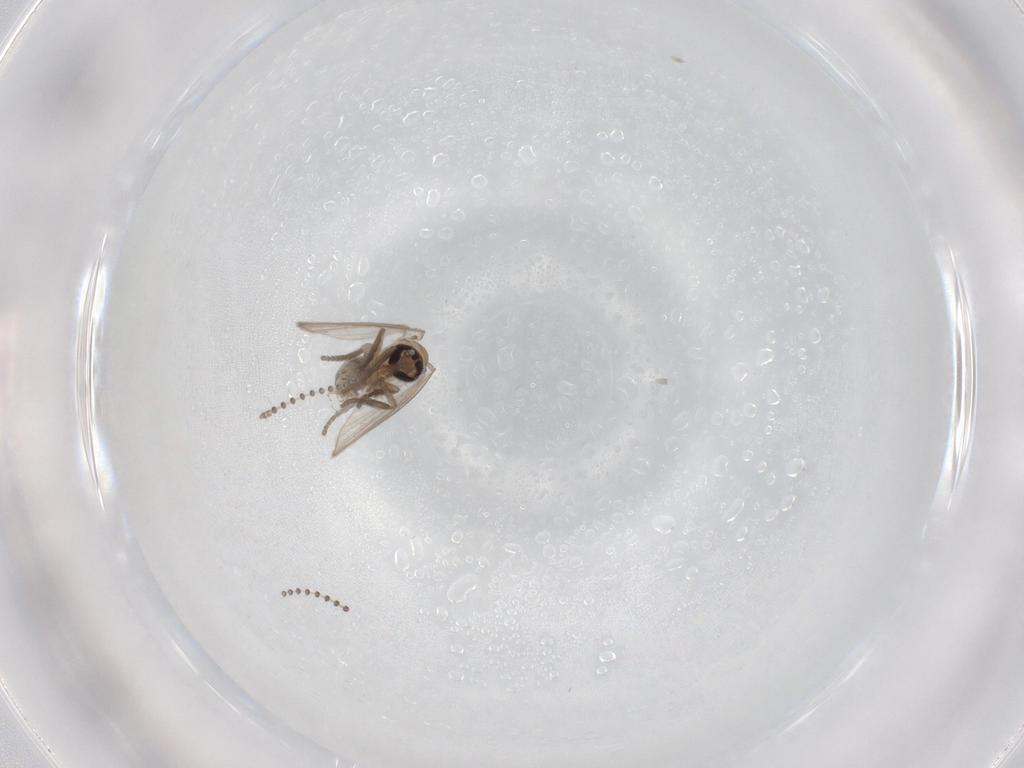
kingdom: Animalia
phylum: Arthropoda
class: Insecta
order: Diptera
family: Psychodidae
